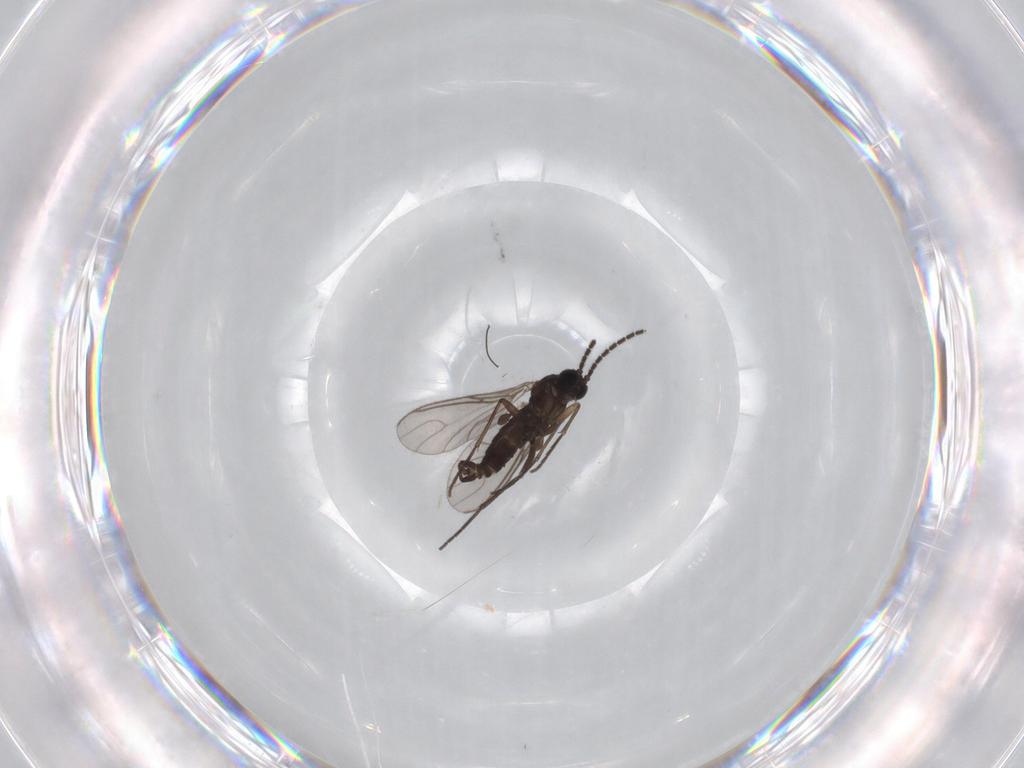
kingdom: Animalia
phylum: Arthropoda
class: Insecta
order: Diptera
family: Sciaridae
